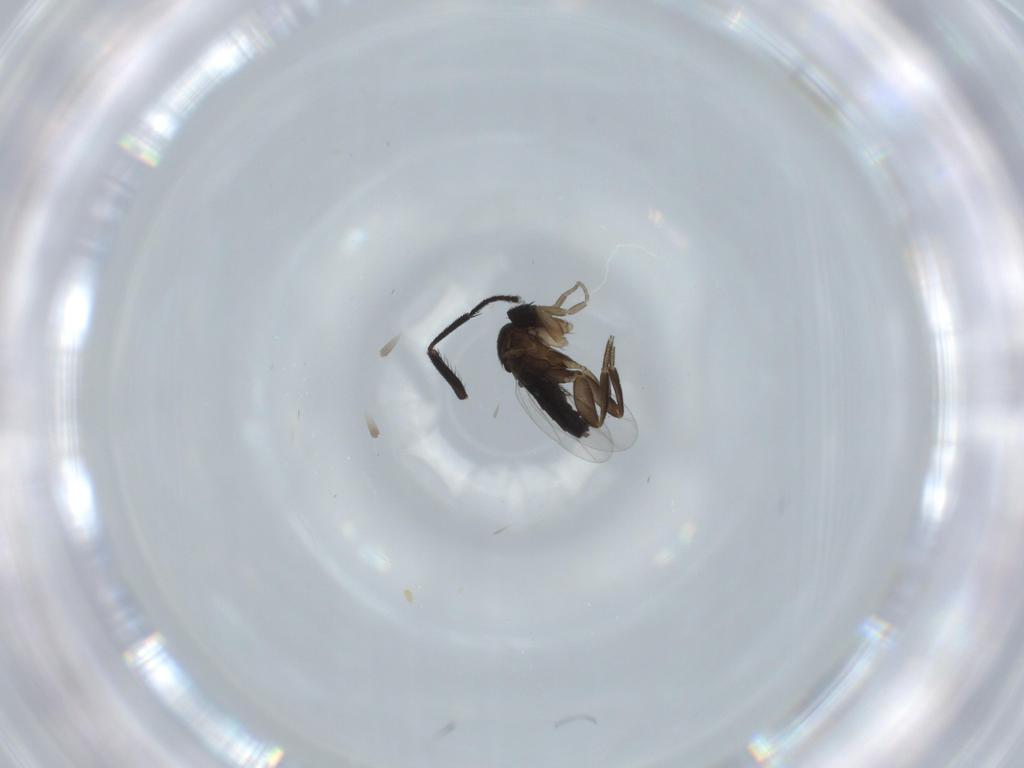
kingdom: Animalia
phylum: Arthropoda
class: Insecta
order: Diptera
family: Sphaeroceridae
